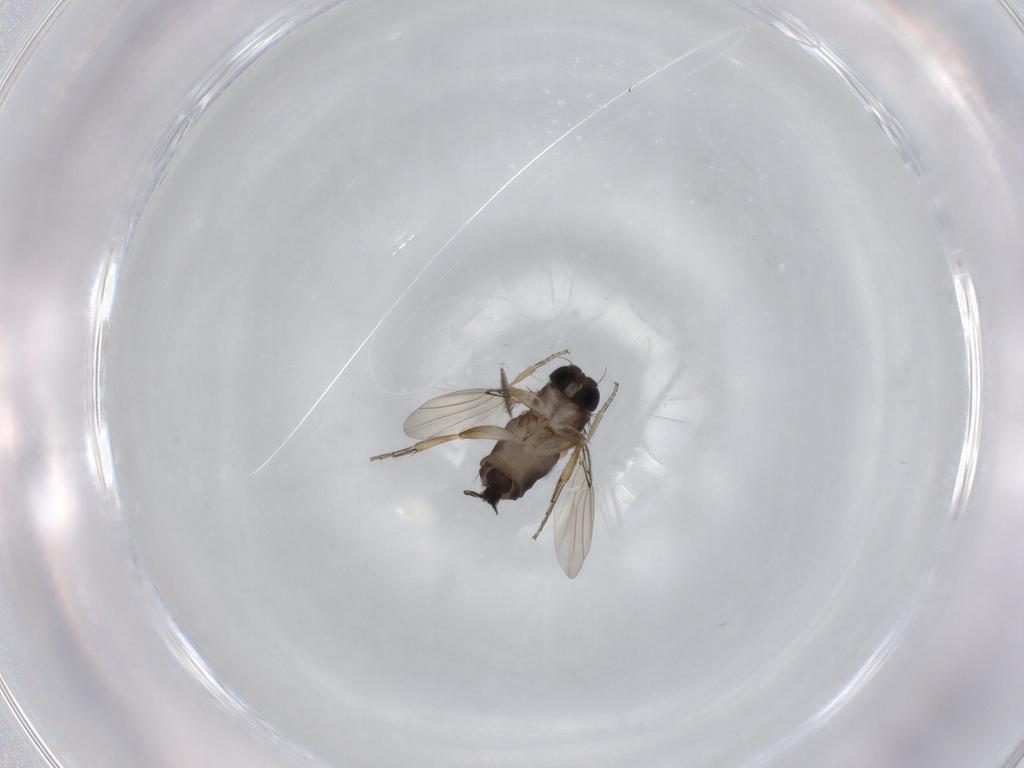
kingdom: Animalia
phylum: Arthropoda
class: Insecta
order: Diptera
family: Phoridae
